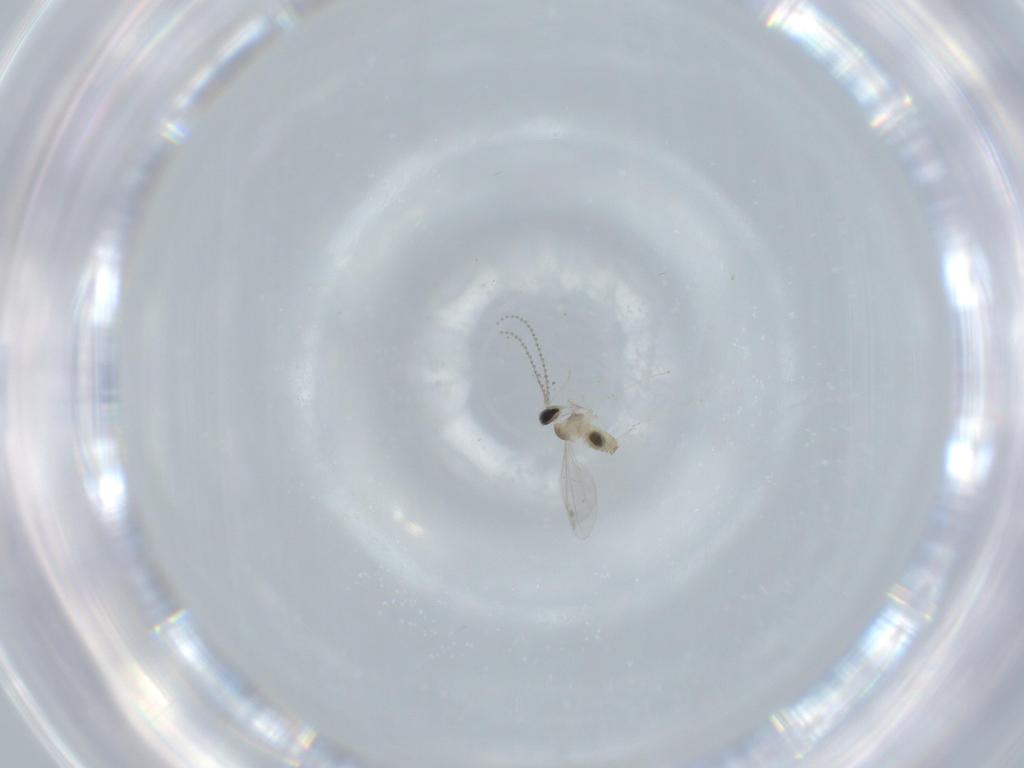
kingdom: Animalia
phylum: Arthropoda
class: Insecta
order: Diptera
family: Cecidomyiidae
